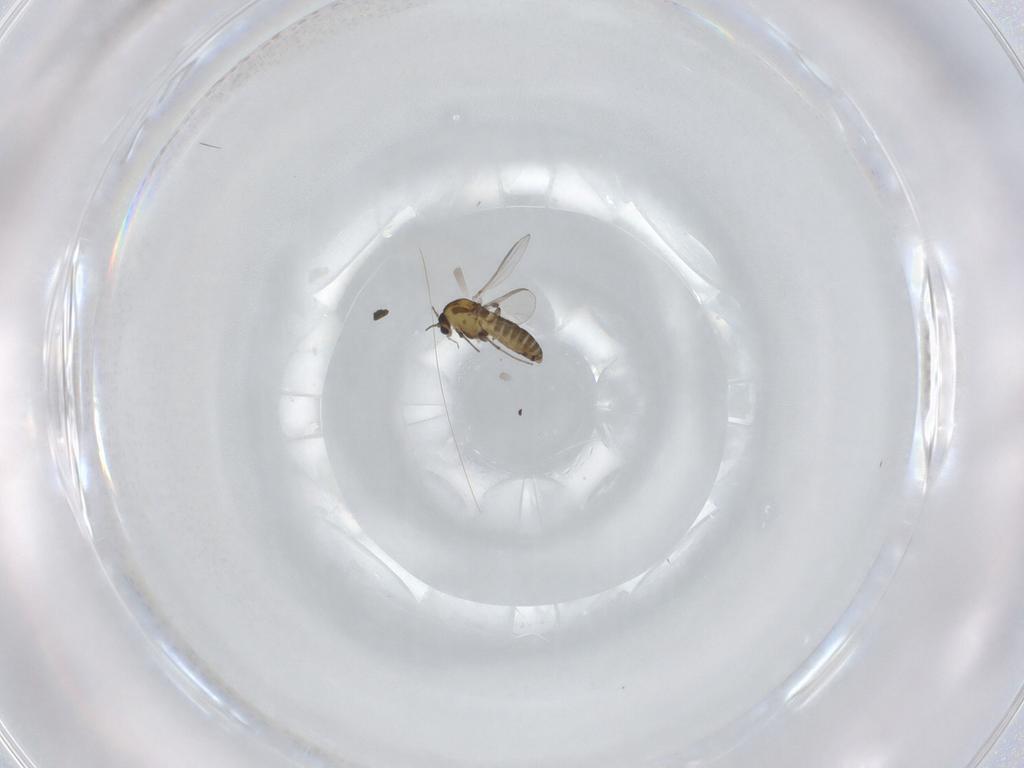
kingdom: Animalia
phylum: Arthropoda
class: Insecta
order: Diptera
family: Chironomidae
